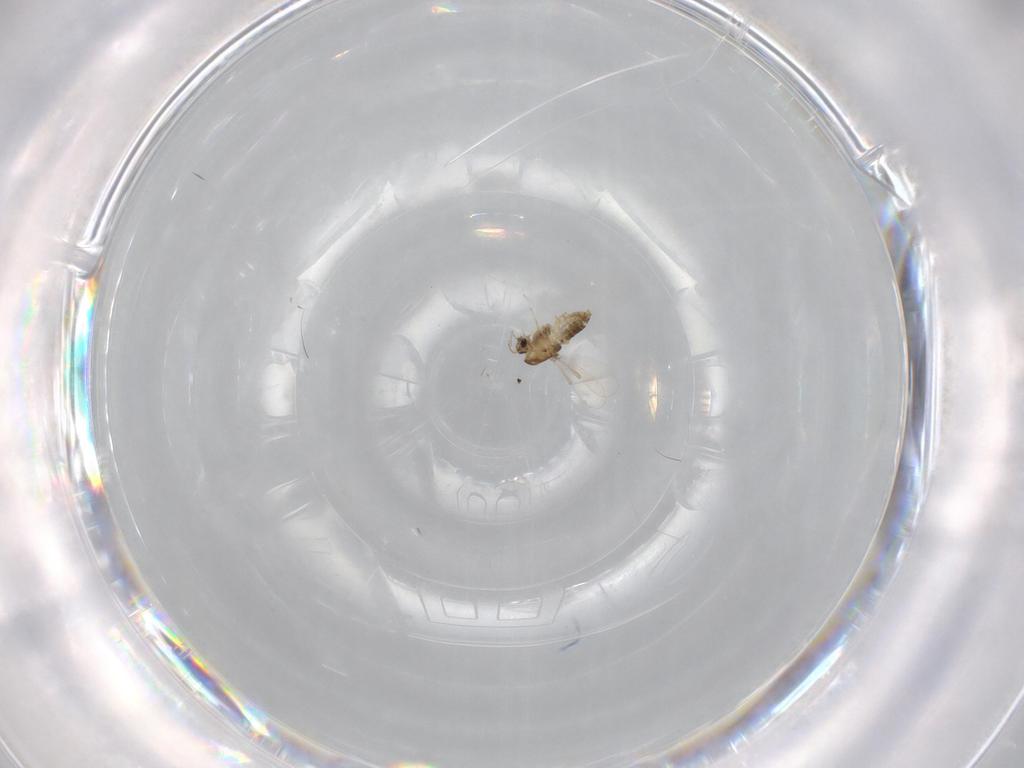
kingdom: Animalia
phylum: Arthropoda
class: Insecta
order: Diptera
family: Chironomidae
